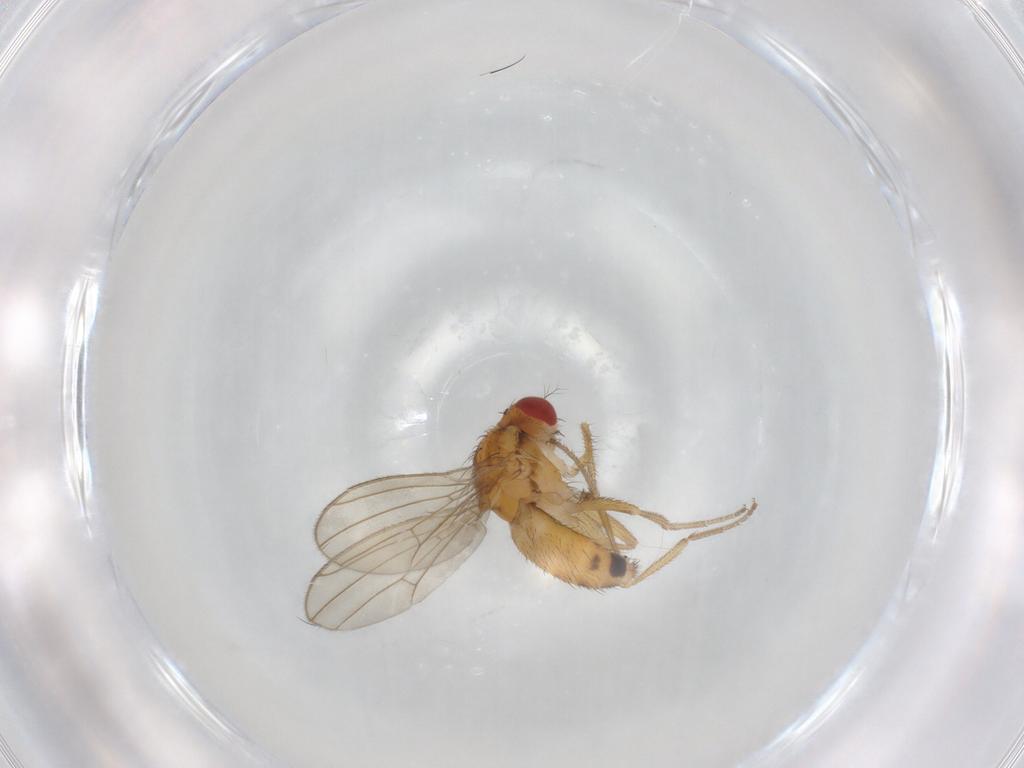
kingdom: Animalia
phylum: Arthropoda
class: Insecta
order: Diptera
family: Drosophilidae
